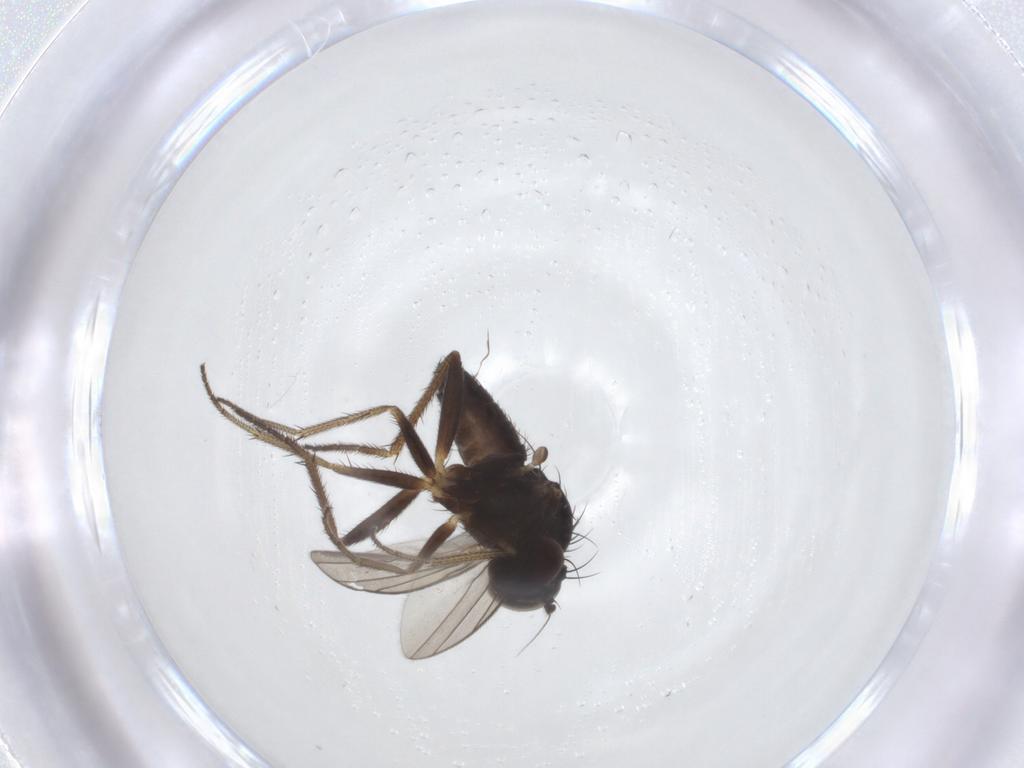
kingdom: Animalia
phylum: Arthropoda
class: Insecta
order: Diptera
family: Dolichopodidae
